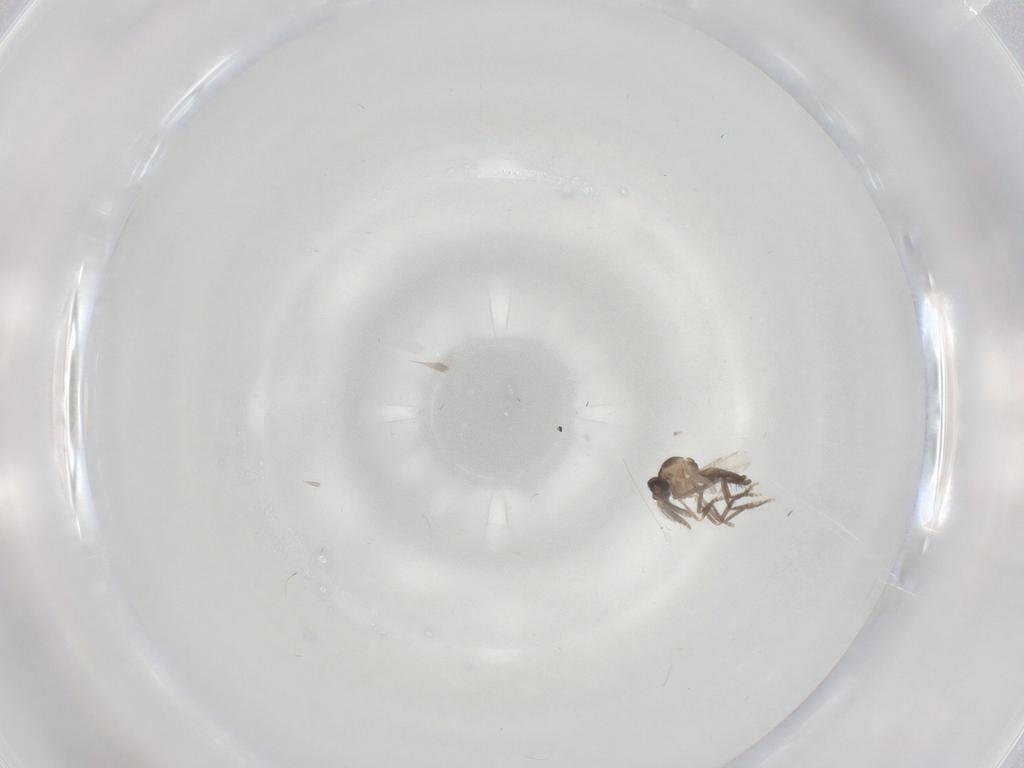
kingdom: Animalia
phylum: Arthropoda
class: Insecta
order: Diptera
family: Ceratopogonidae
